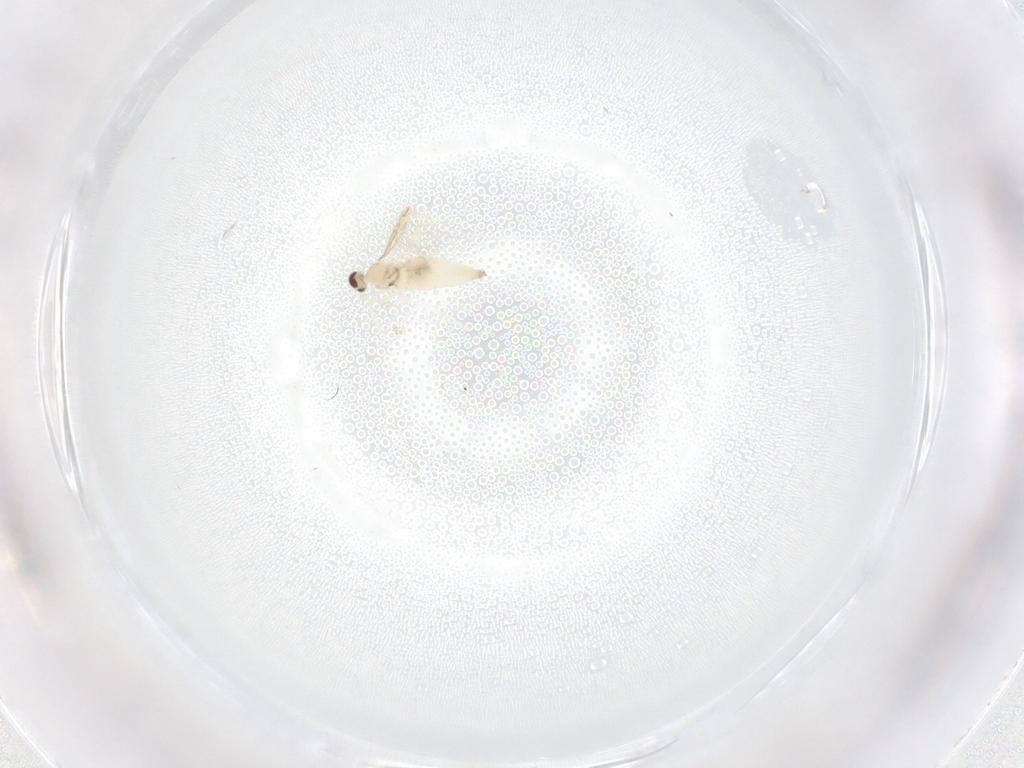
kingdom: Animalia
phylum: Arthropoda
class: Insecta
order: Diptera
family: Cecidomyiidae
